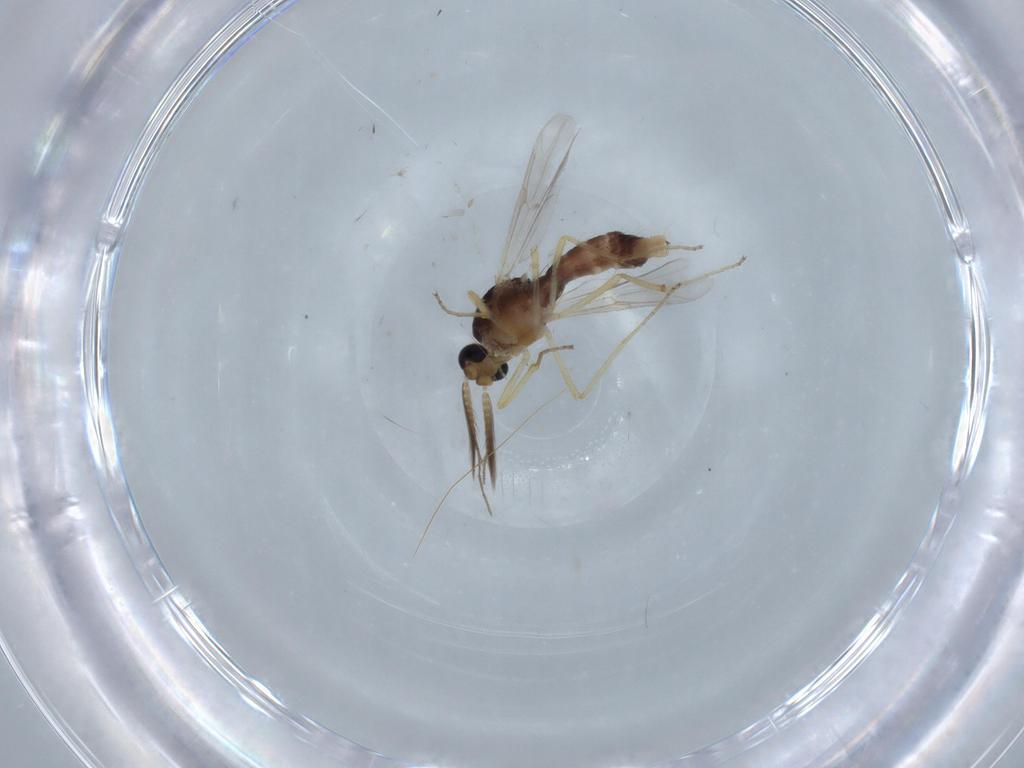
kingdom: Animalia
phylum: Arthropoda
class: Insecta
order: Diptera
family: Ceratopogonidae
